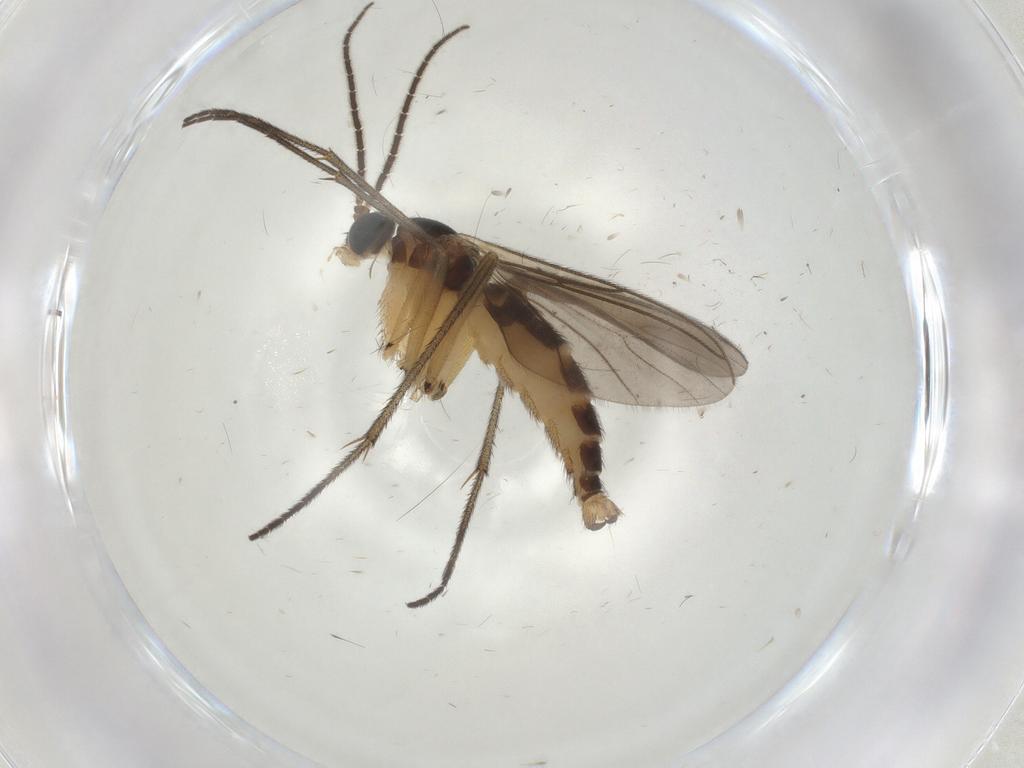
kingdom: Animalia
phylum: Arthropoda
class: Insecta
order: Diptera
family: Sciaridae
